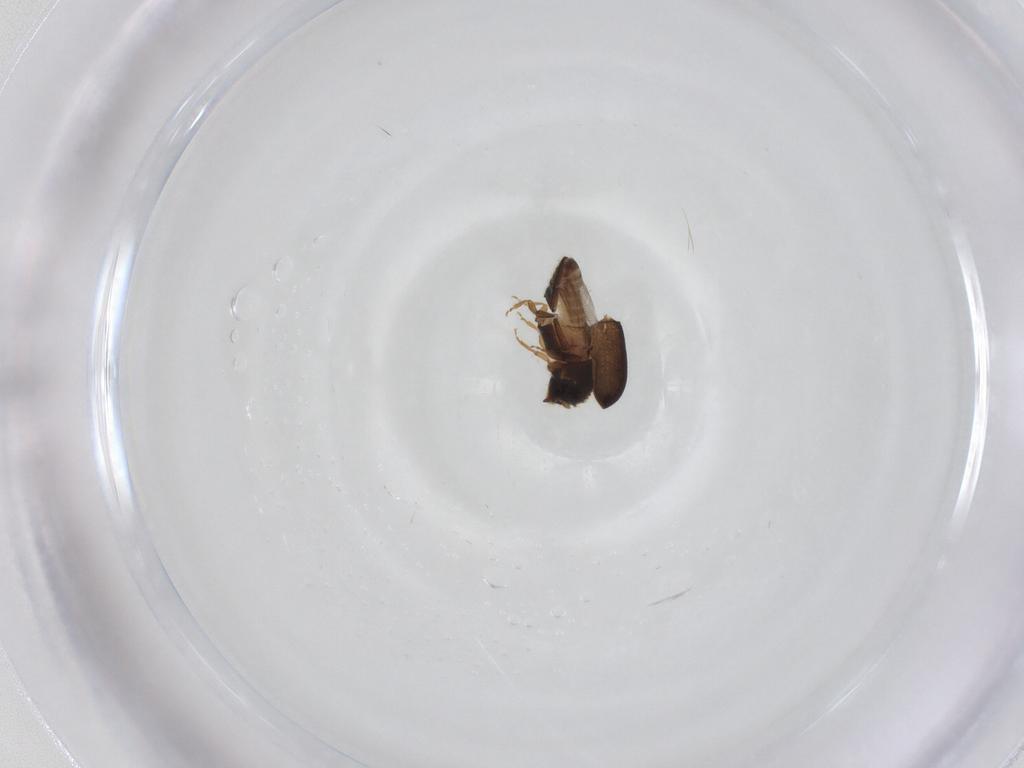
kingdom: Animalia
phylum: Arthropoda
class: Insecta
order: Coleoptera
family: Curculionidae
